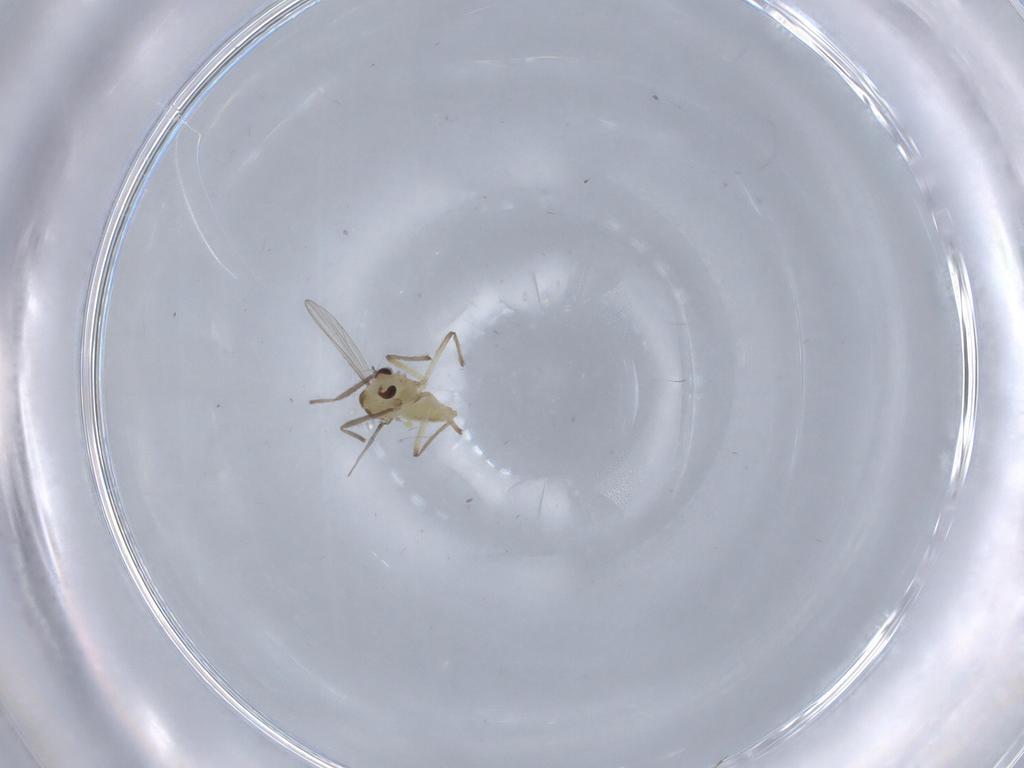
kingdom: Animalia
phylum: Arthropoda
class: Insecta
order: Diptera
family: Chironomidae
